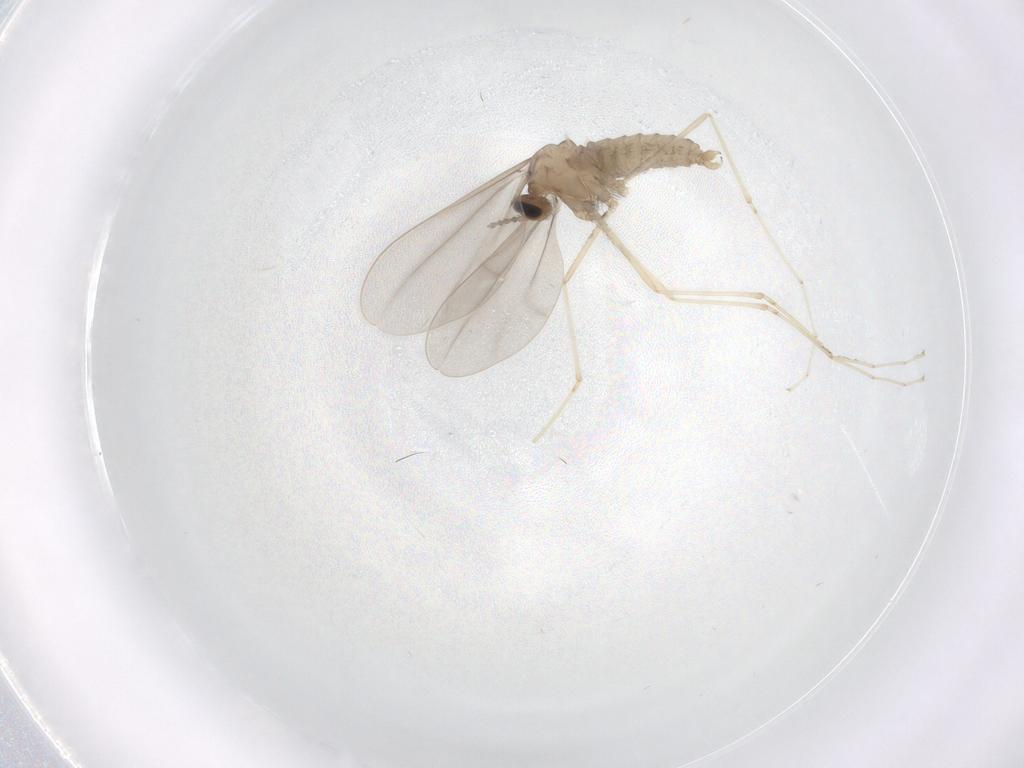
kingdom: Animalia
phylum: Arthropoda
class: Insecta
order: Diptera
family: Cecidomyiidae
